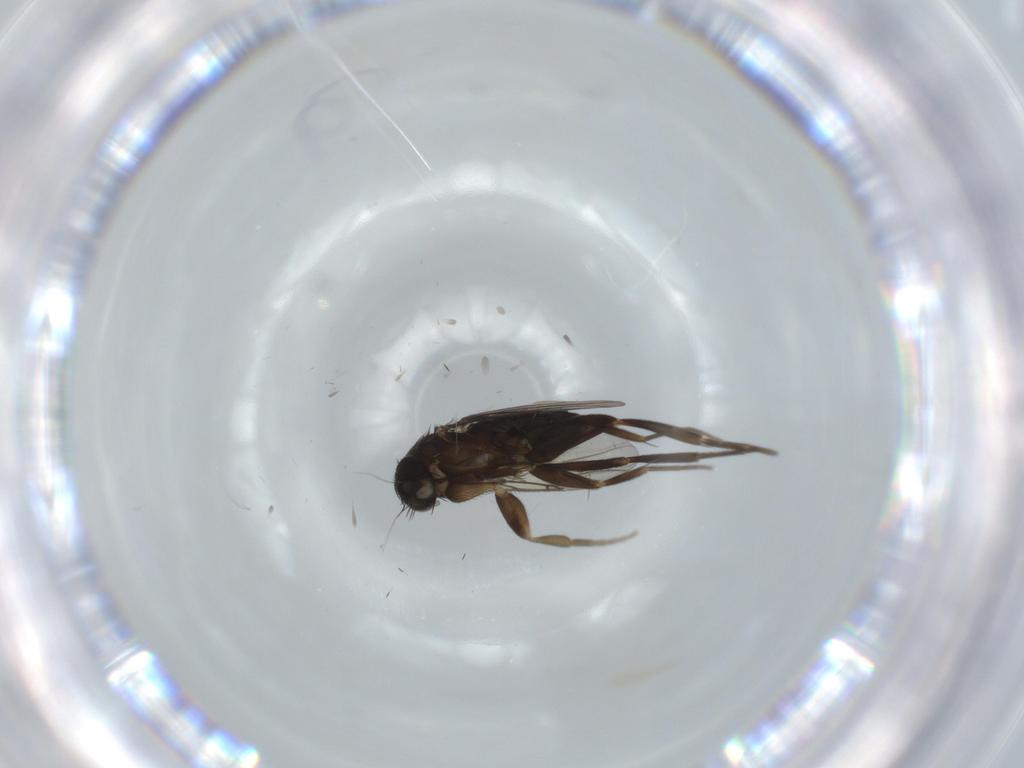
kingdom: Animalia
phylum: Arthropoda
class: Insecta
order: Diptera
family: Phoridae
